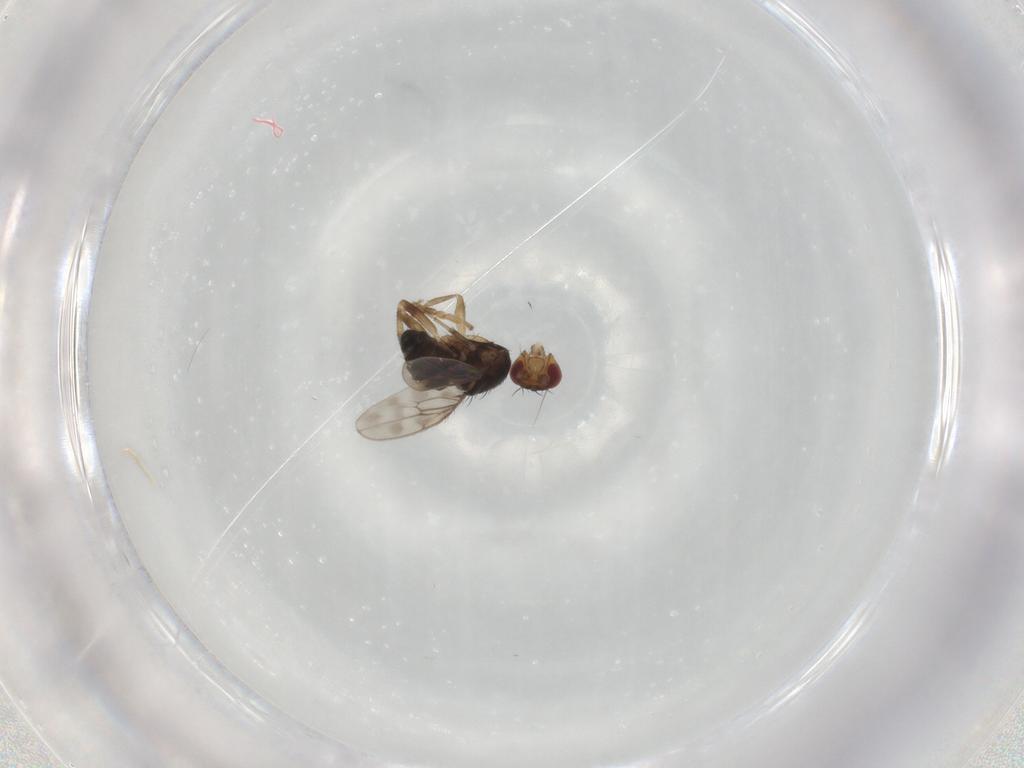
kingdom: Animalia
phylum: Arthropoda
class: Insecta
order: Diptera
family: Sphaeroceridae
